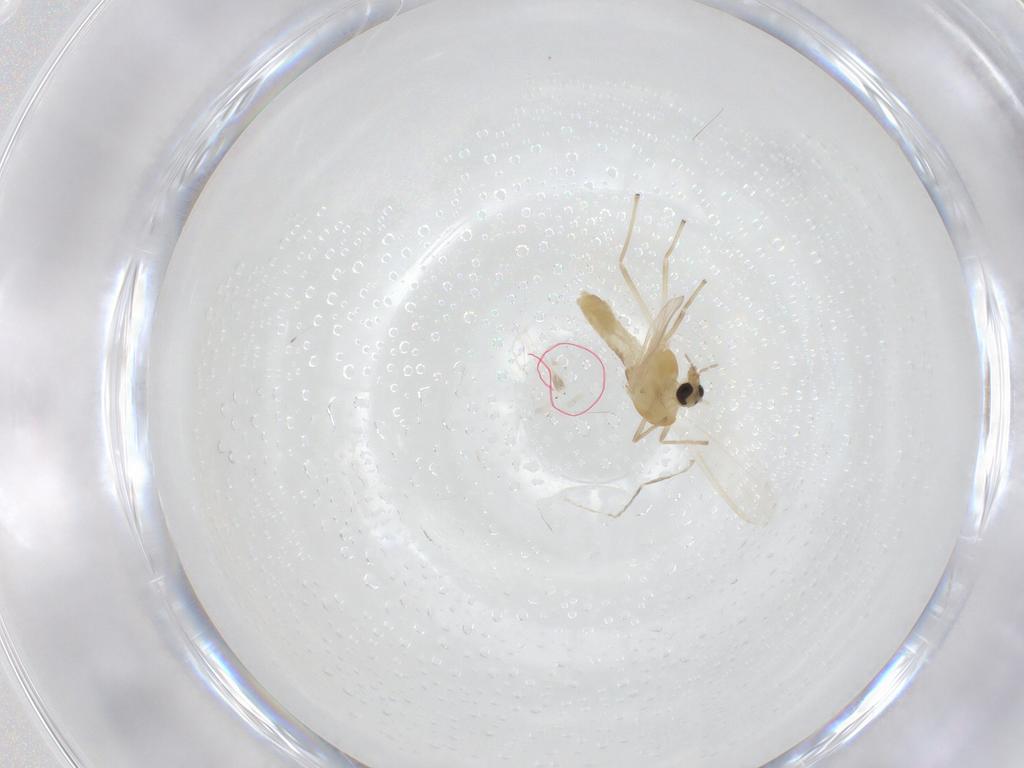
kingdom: Animalia
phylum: Arthropoda
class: Insecta
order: Diptera
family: Chironomidae
